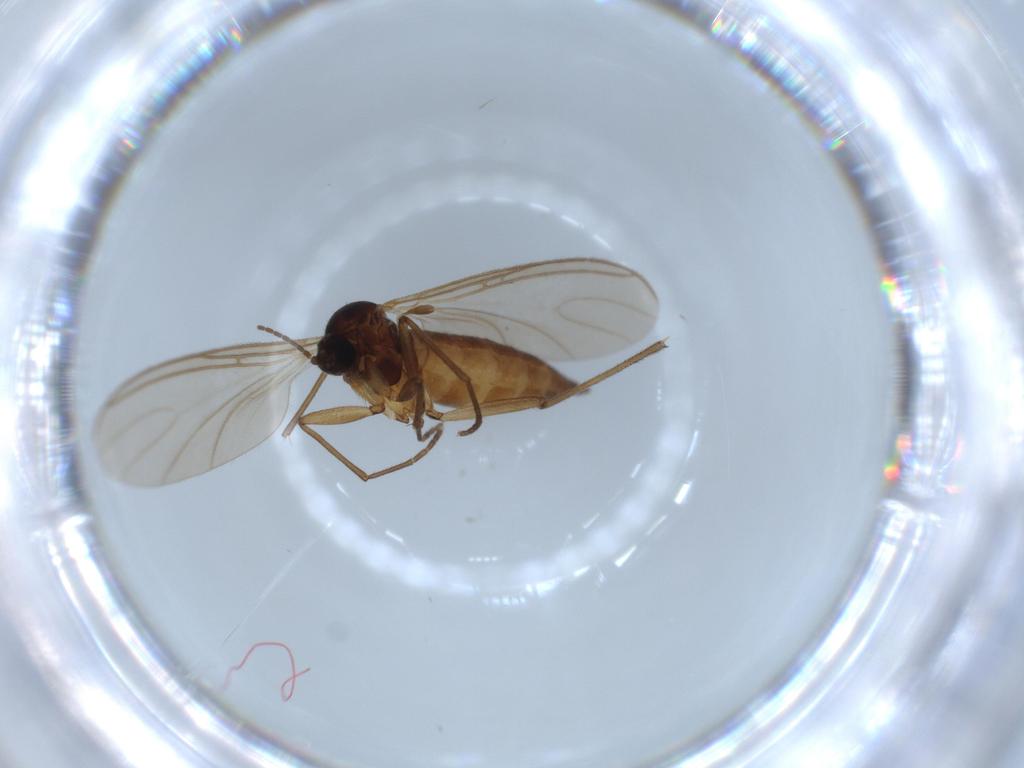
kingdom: Animalia
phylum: Arthropoda
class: Insecta
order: Diptera
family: Sciaridae
